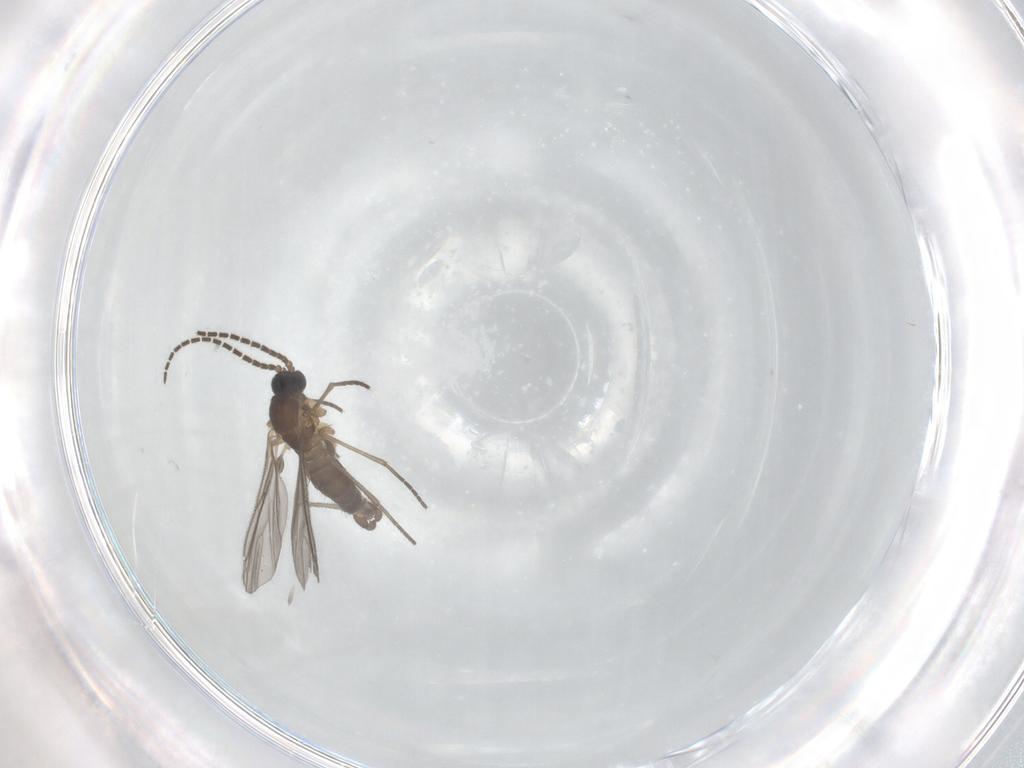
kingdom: Animalia
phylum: Arthropoda
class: Insecta
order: Diptera
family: Sciaridae
